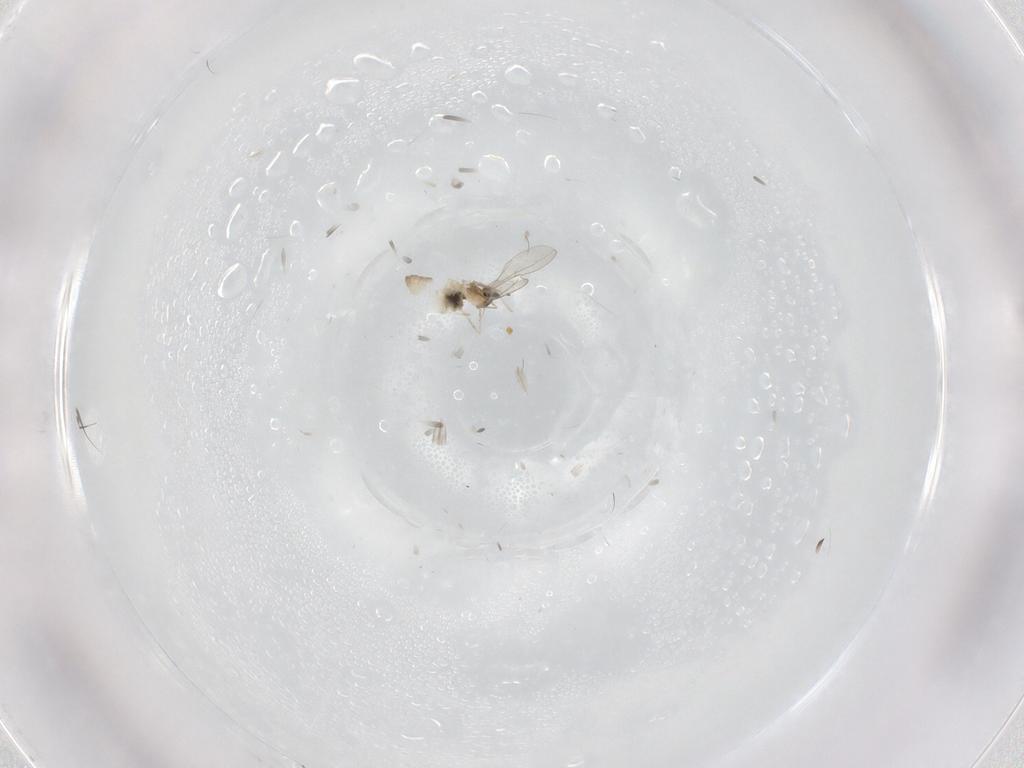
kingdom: Animalia
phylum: Arthropoda
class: Insecta
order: Diptera
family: Cecidomyiidae
